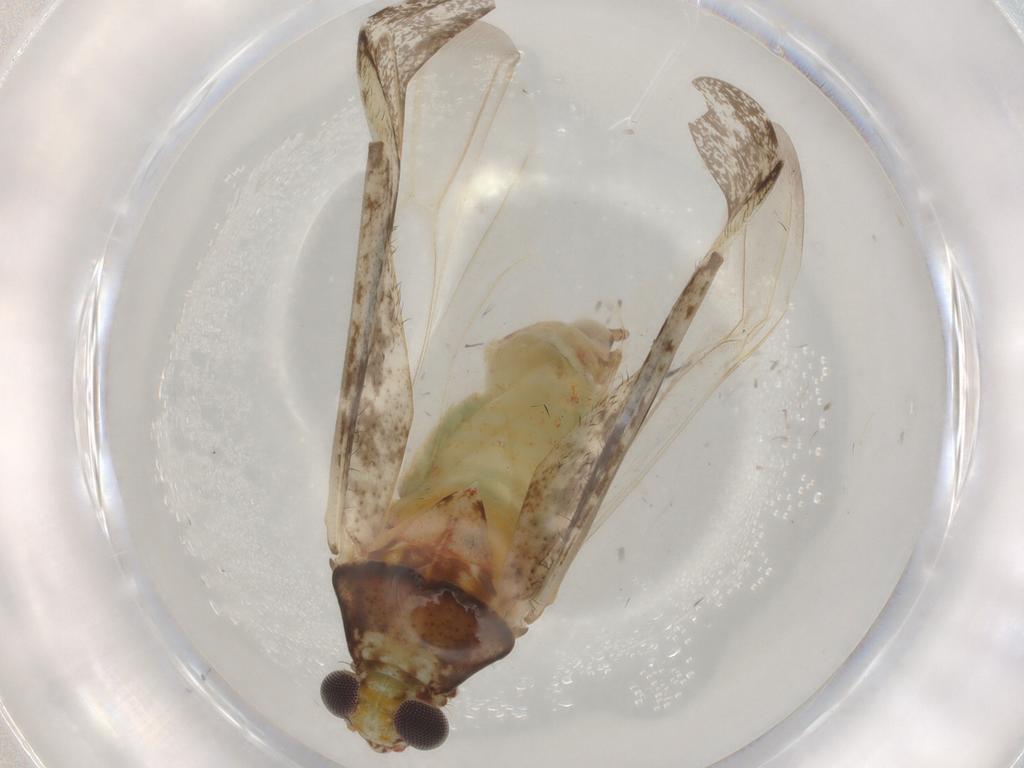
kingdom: Animalia
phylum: Arthropoda
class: Insecta
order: Hemiptera
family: Miridae
